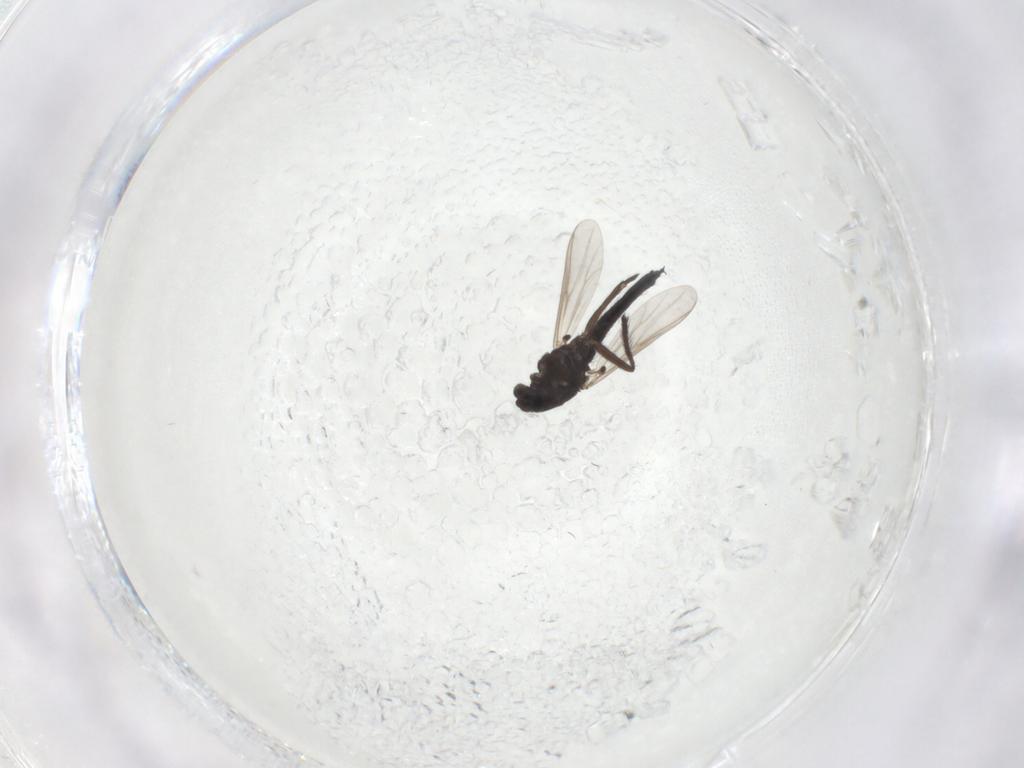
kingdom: Animalia
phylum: Arthropoda
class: Insecta
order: Diptera
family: Chironomidae
